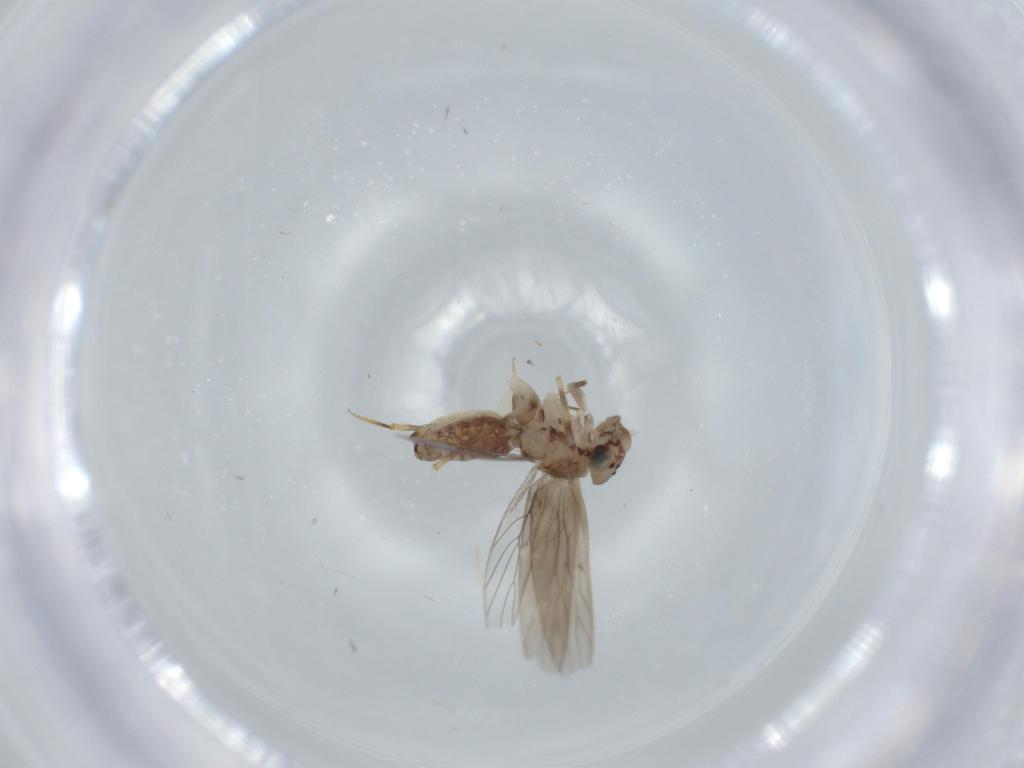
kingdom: Animalia
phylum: Arthropoda
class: Insecta
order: Psocodea
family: Lepidopsocidae
